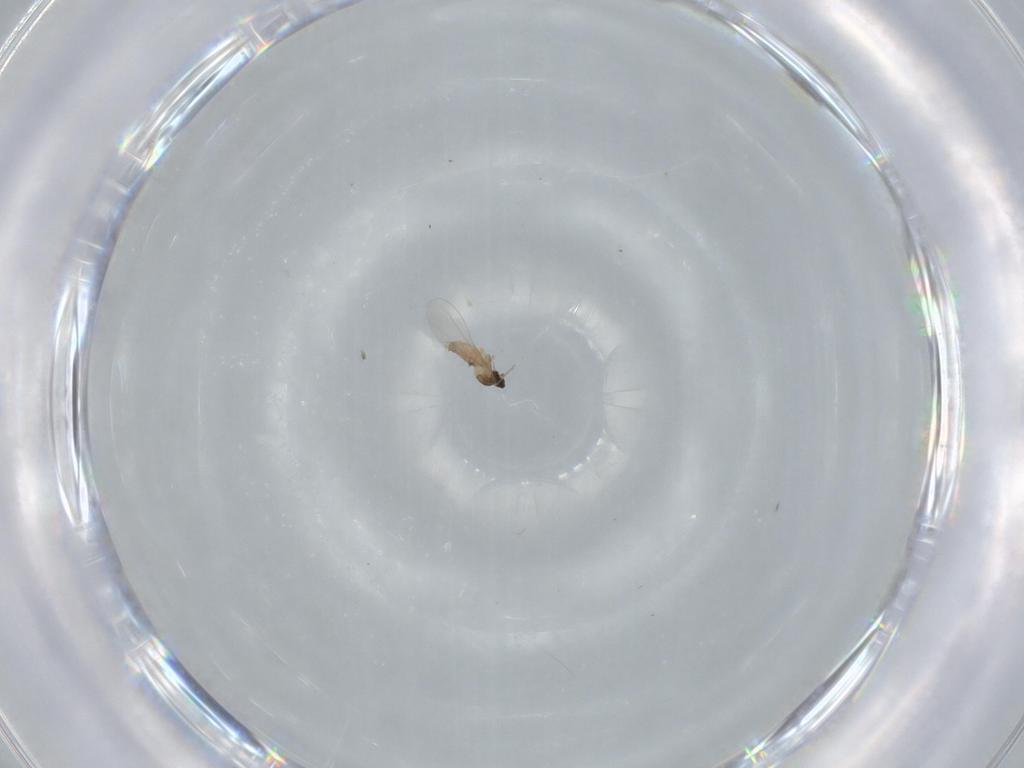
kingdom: Animalia
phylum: Arthropoda
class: Insecta
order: Diptera
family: Cecidomyiidae
